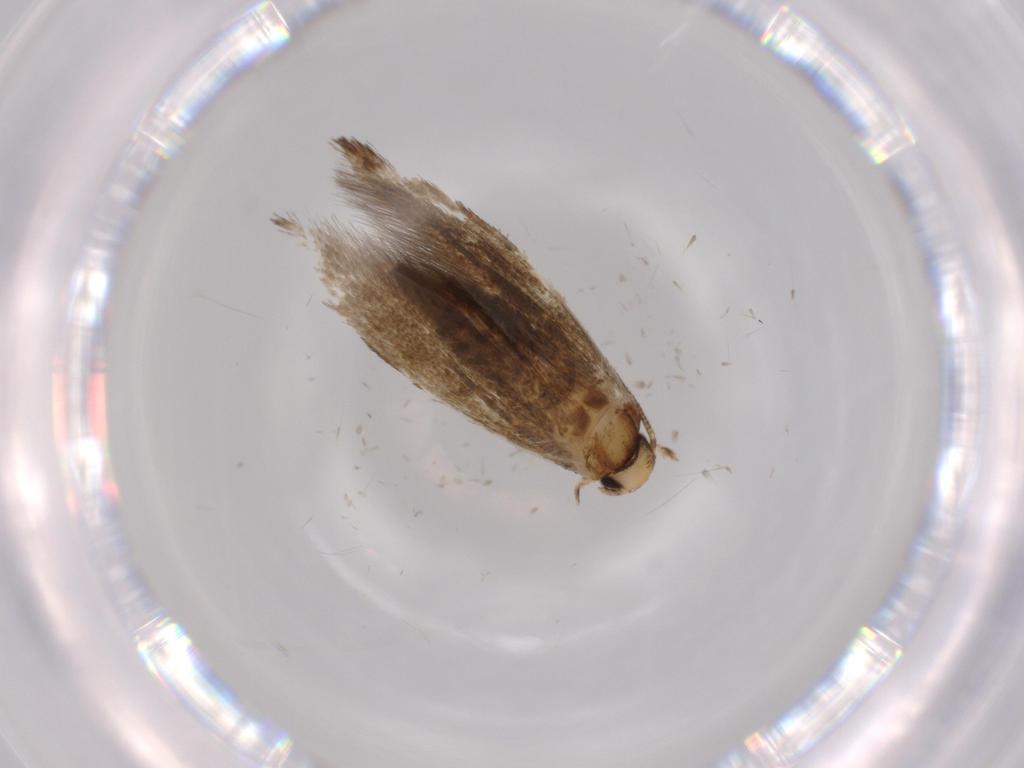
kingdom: Animalia
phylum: Arthropoda
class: Insecta
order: Lepidoptera
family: Tineidae
